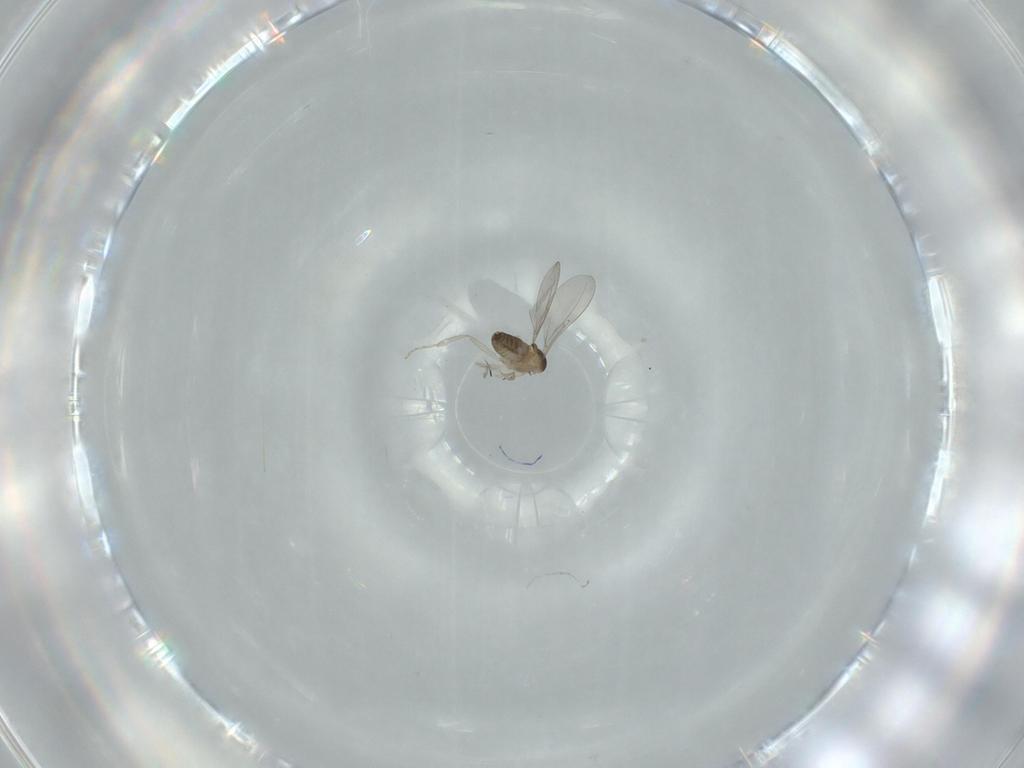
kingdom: Animalia
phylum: Arthropoda
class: Insecta
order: Diptera
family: Cecidomyiidae
